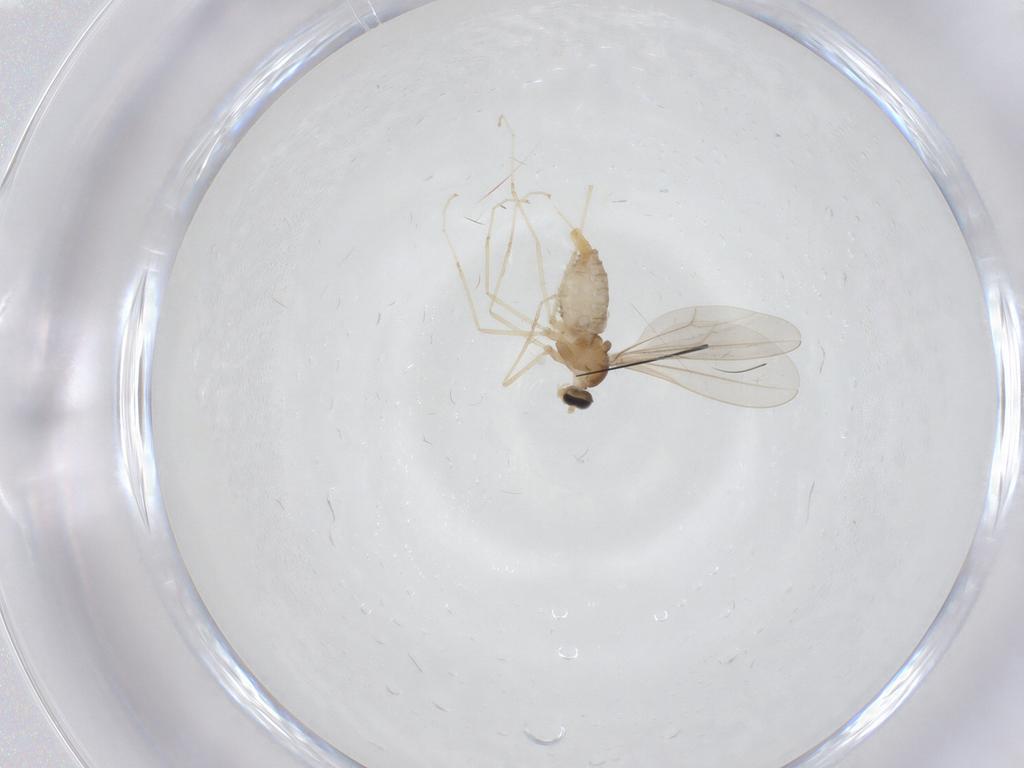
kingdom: Animalia
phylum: Arthropoda
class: Insecta
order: Diptera
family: Cecidomyiidae
